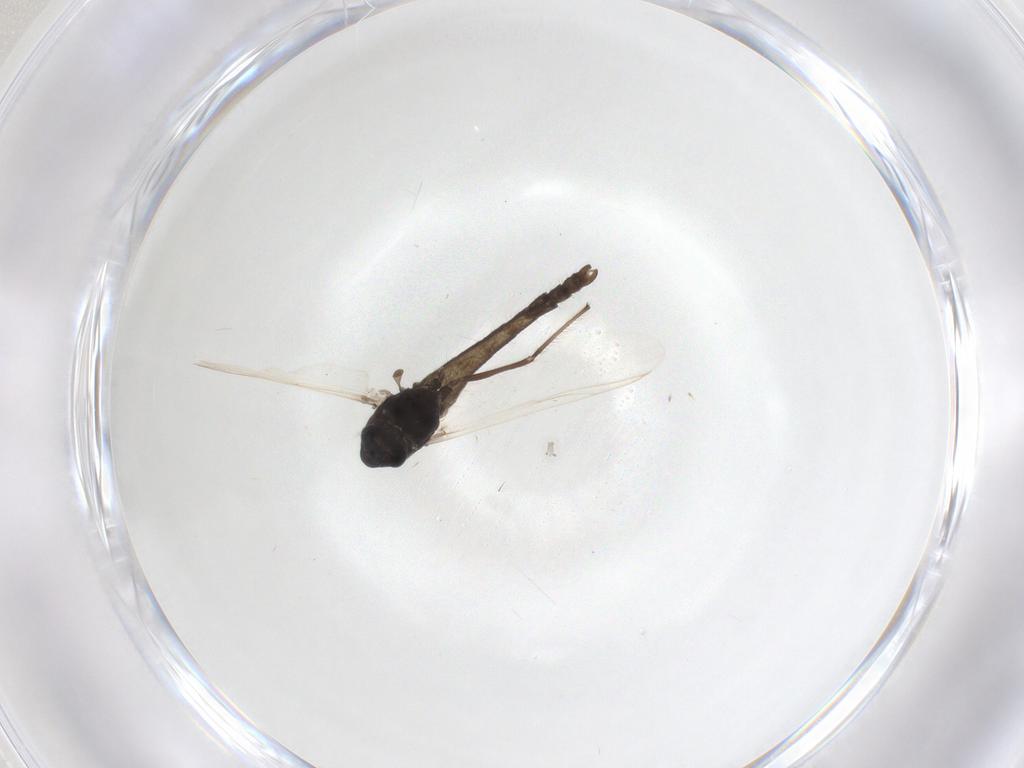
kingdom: Animalia
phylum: Arthropoda
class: Insecta
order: Diptera
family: Chironomidae
